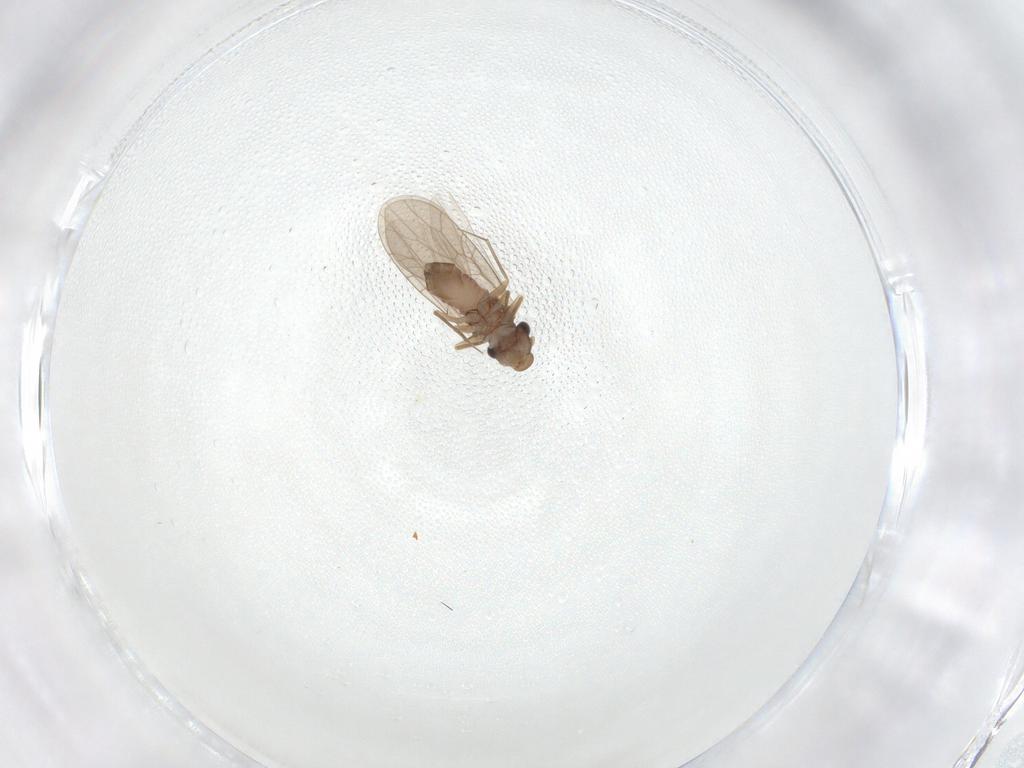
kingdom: Animalia
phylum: Arthropoda
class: Insecta
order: Psocodea
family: Lepidopsocidae
